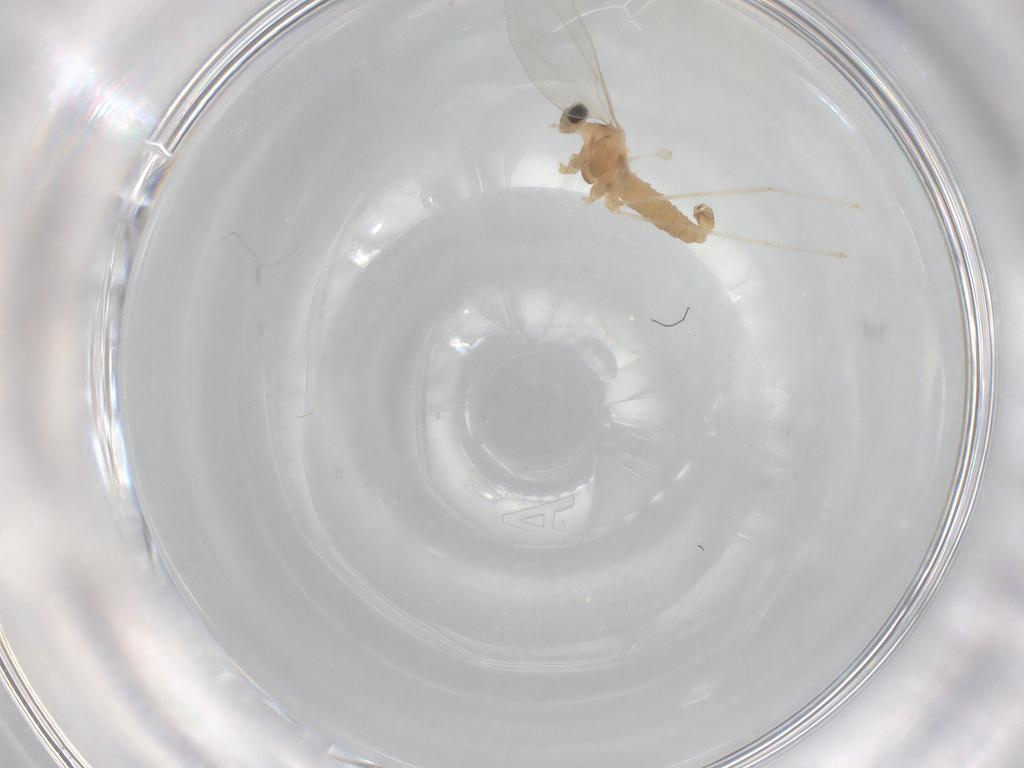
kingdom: Animalia
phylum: Arthropoda
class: Insecta
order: Diptera
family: Cecidomyiidae
